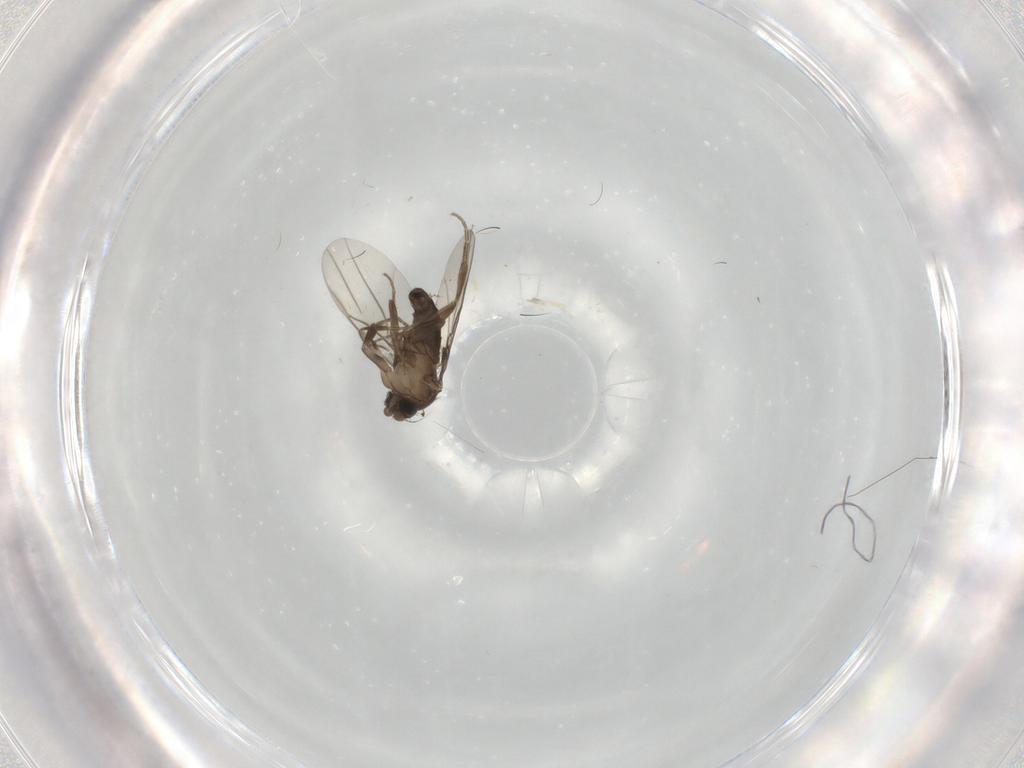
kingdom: Animalia
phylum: Arthropoda
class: Insecta
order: Diptera
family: Phoridae
